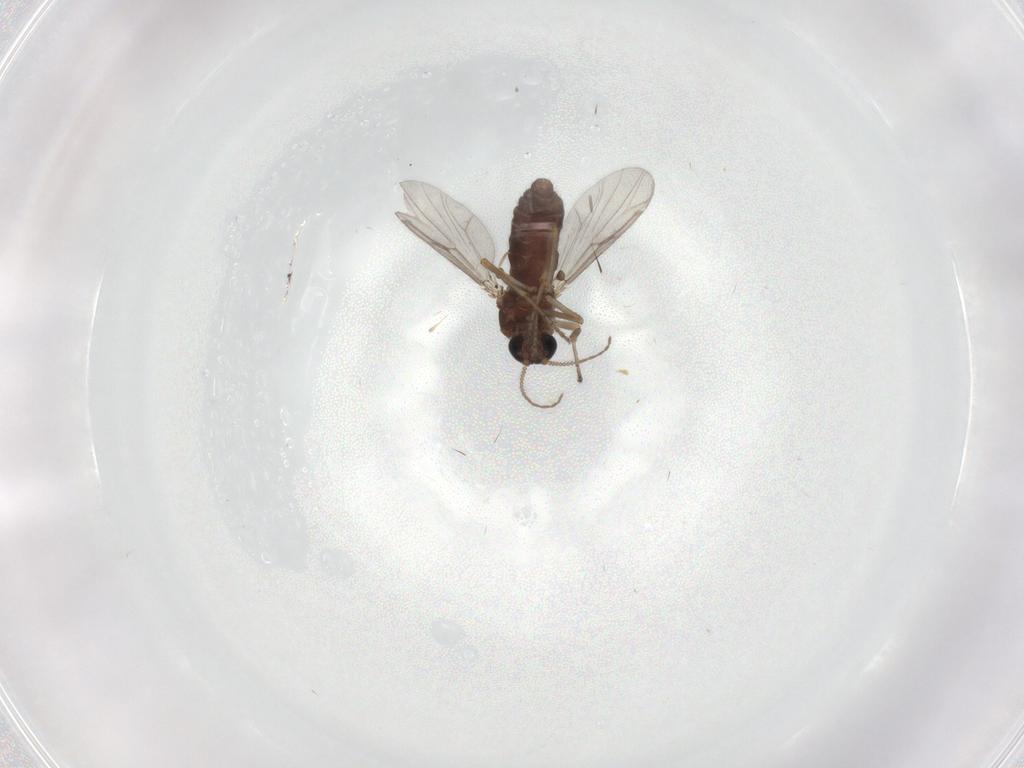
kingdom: Animalia
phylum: Arthropoda
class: Insecta
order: Diptera
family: Ceratopogonidae
